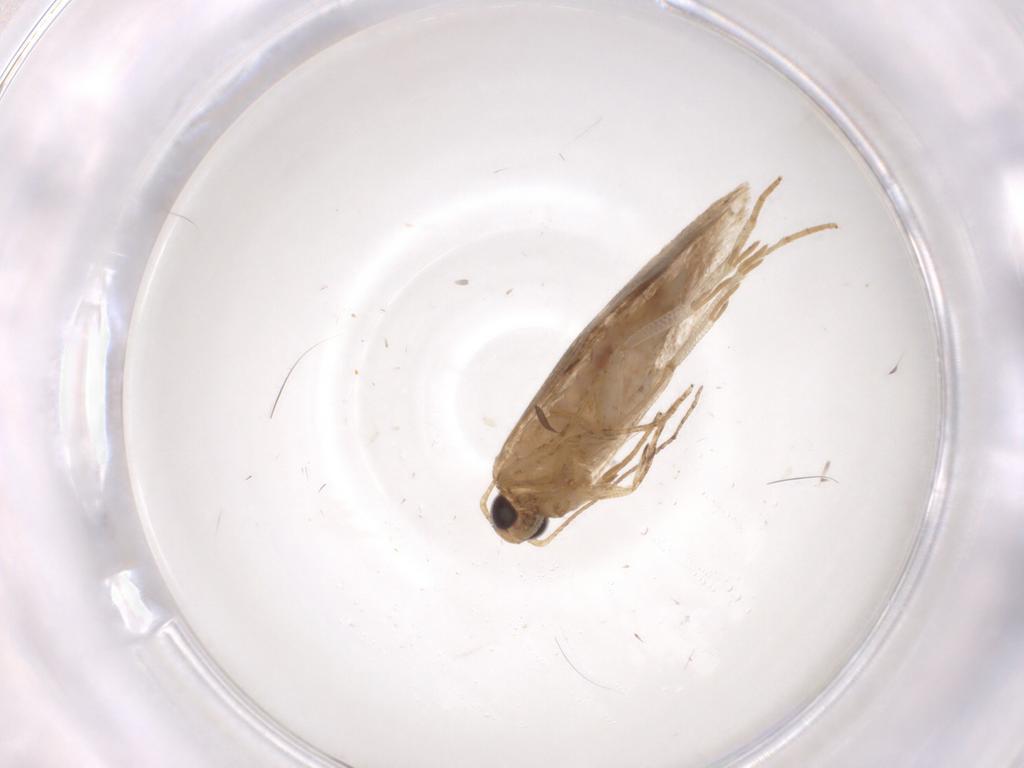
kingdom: Animalia
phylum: Arthropoda
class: Insecta
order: Lepidoptera
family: Gelechiidae
